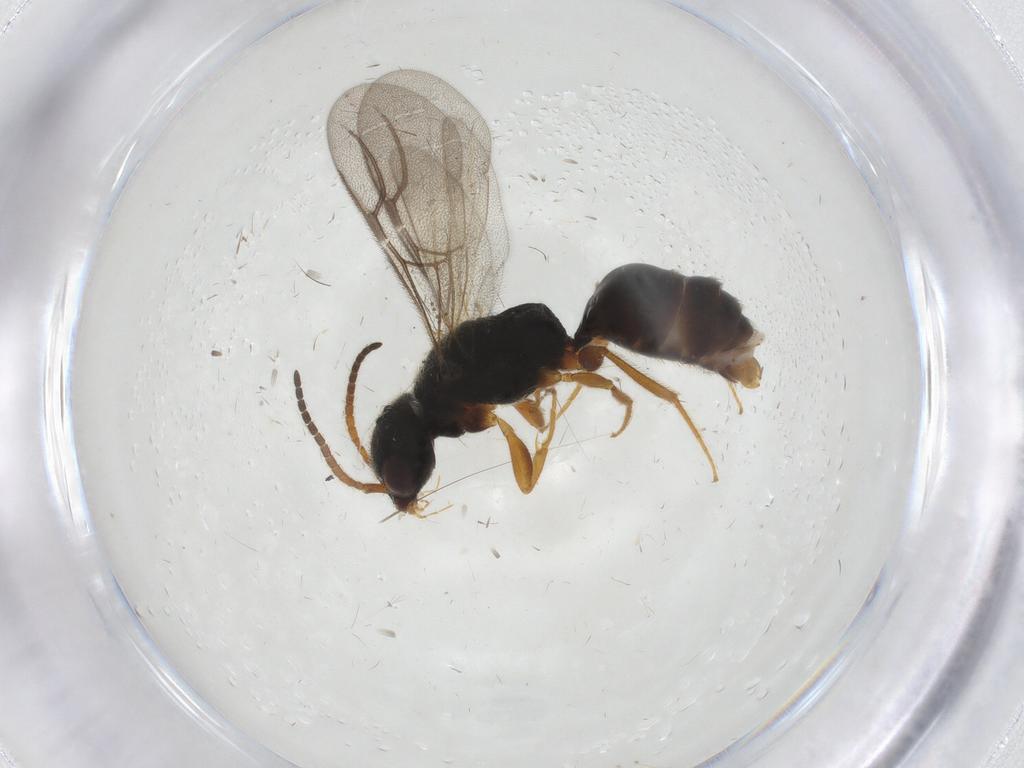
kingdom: Animalia
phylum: Arthropoda
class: Insecta
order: Hymenoptera
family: Bethylidae
